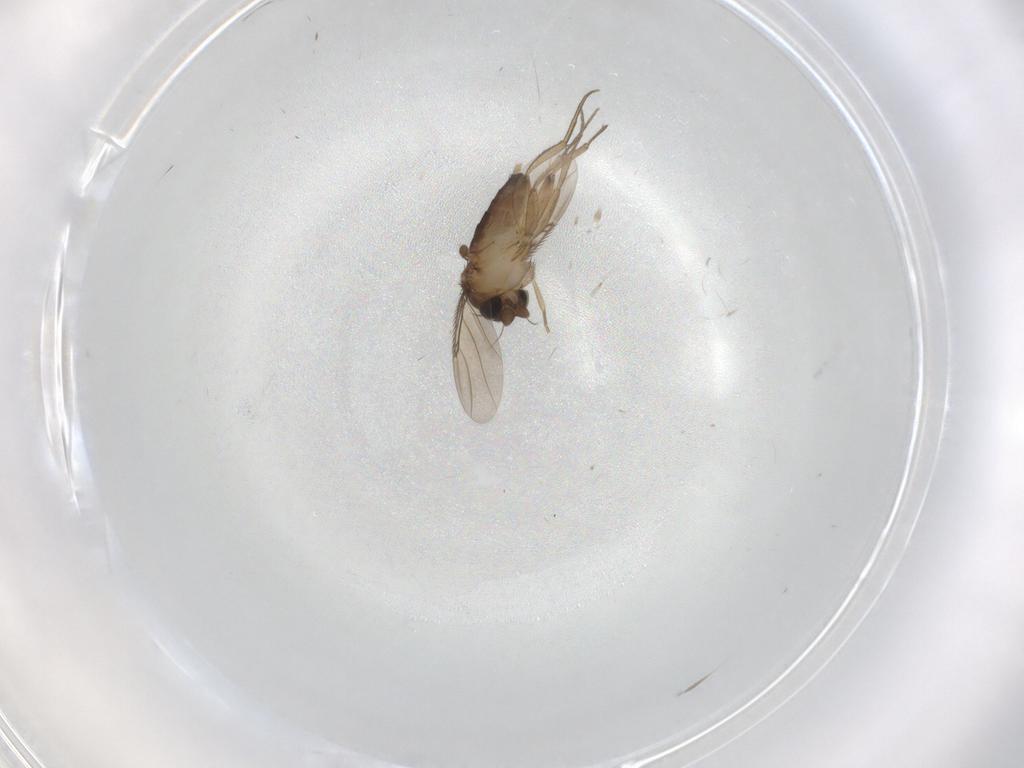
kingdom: Animalia
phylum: Arthropoda
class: Insecta
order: Diptera
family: Phoridae
